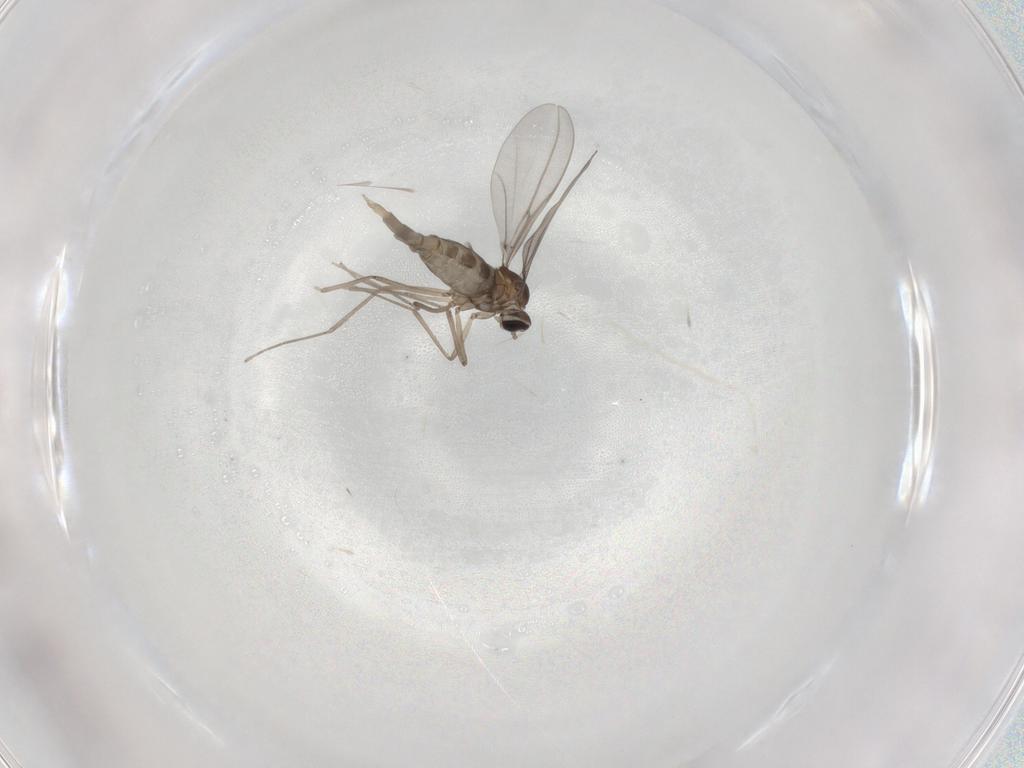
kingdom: Animalia
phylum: Arthropoda
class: Insecta
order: Diptera
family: Cecidomyiidae
